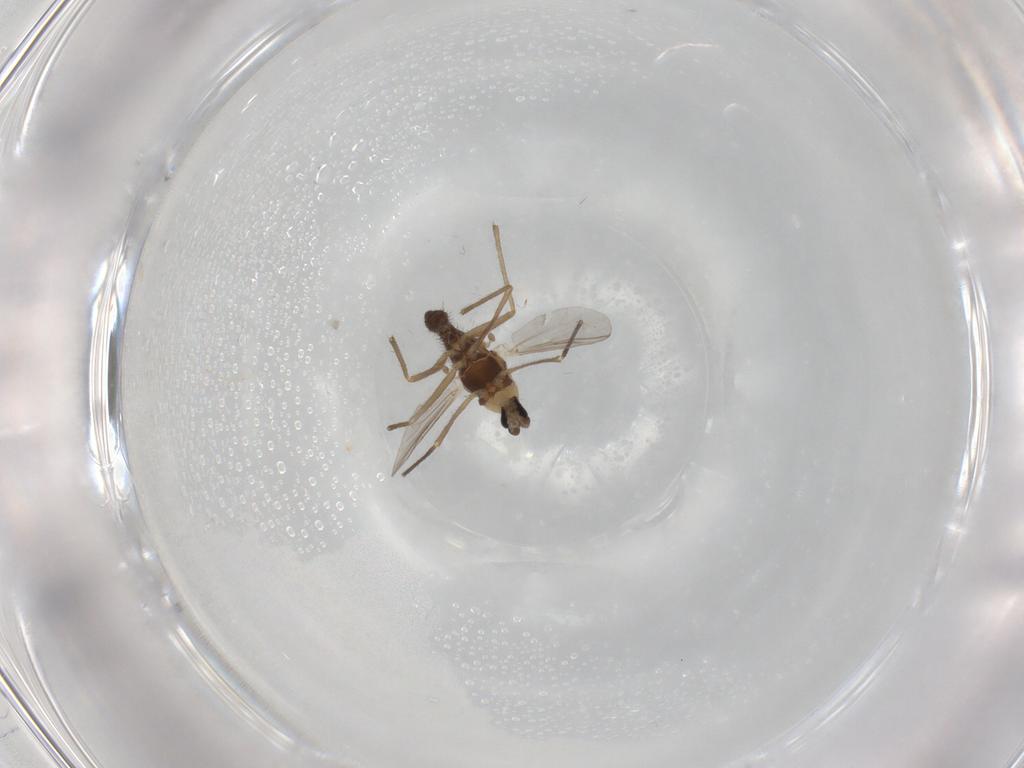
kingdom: Animalia
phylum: Arthropoda
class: Insecta
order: Diptera
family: Chironomidae
